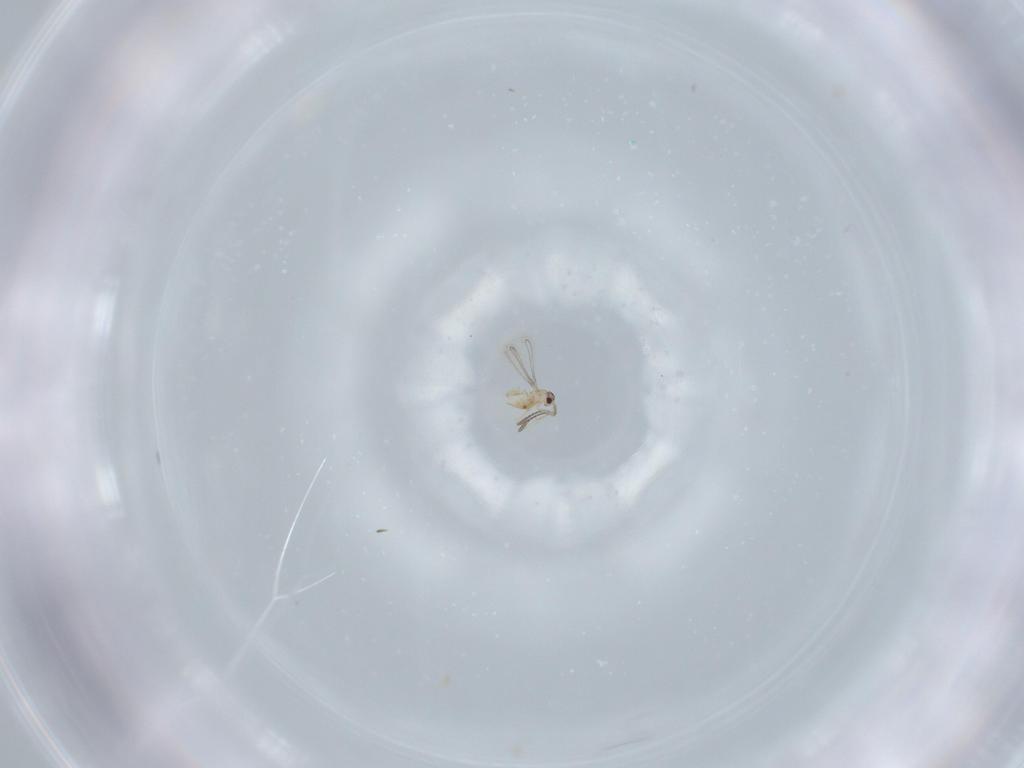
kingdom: Animalia
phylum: Arthropoda
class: Insecta
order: Hymenoptera
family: Mymaridae
